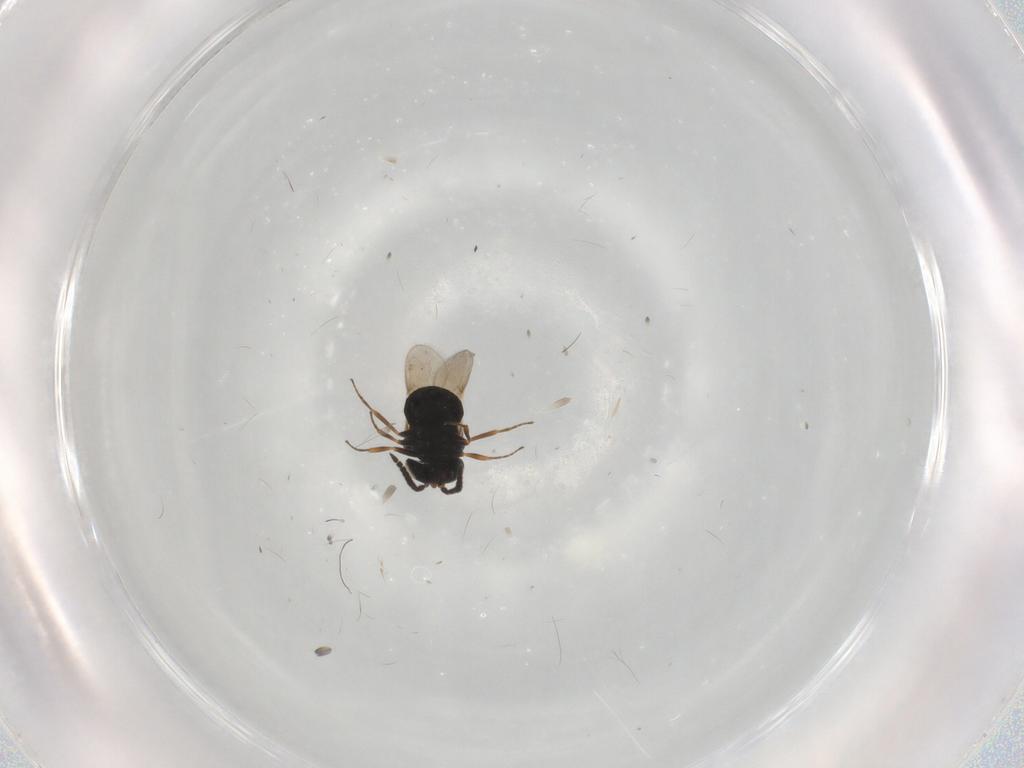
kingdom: Animalia
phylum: Arthropoda
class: Insecta
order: Hymenoptera
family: Scelionidae
